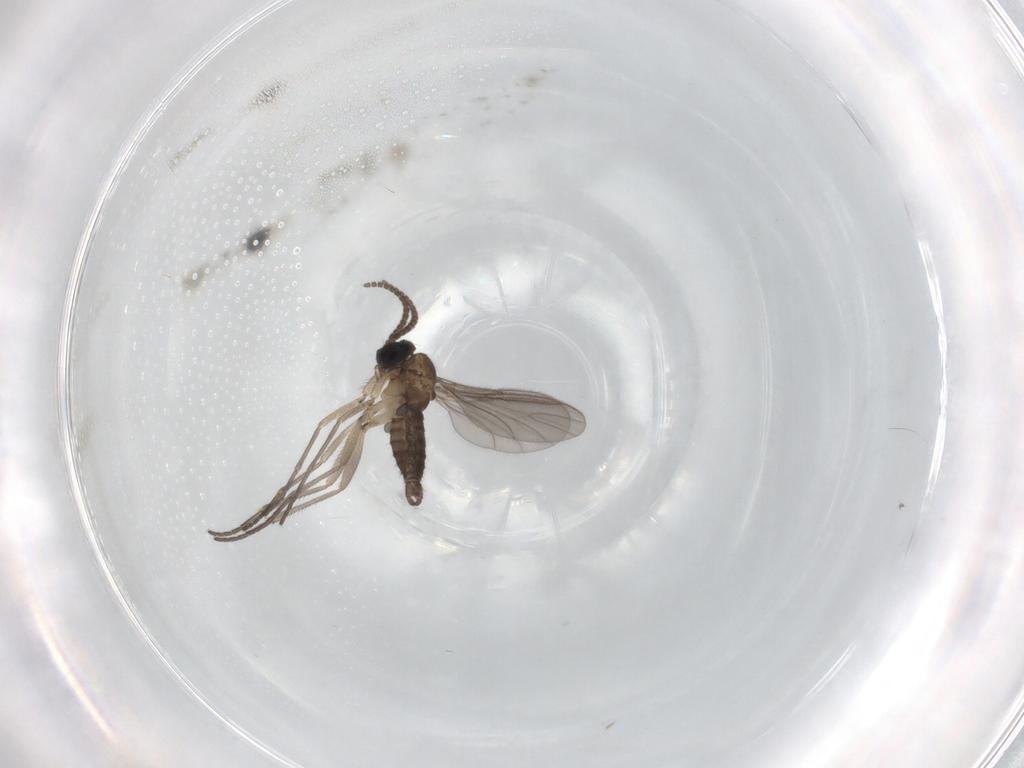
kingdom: Animalia
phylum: Arthropoda
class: Insecta
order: Diptera
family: Sciaridae
